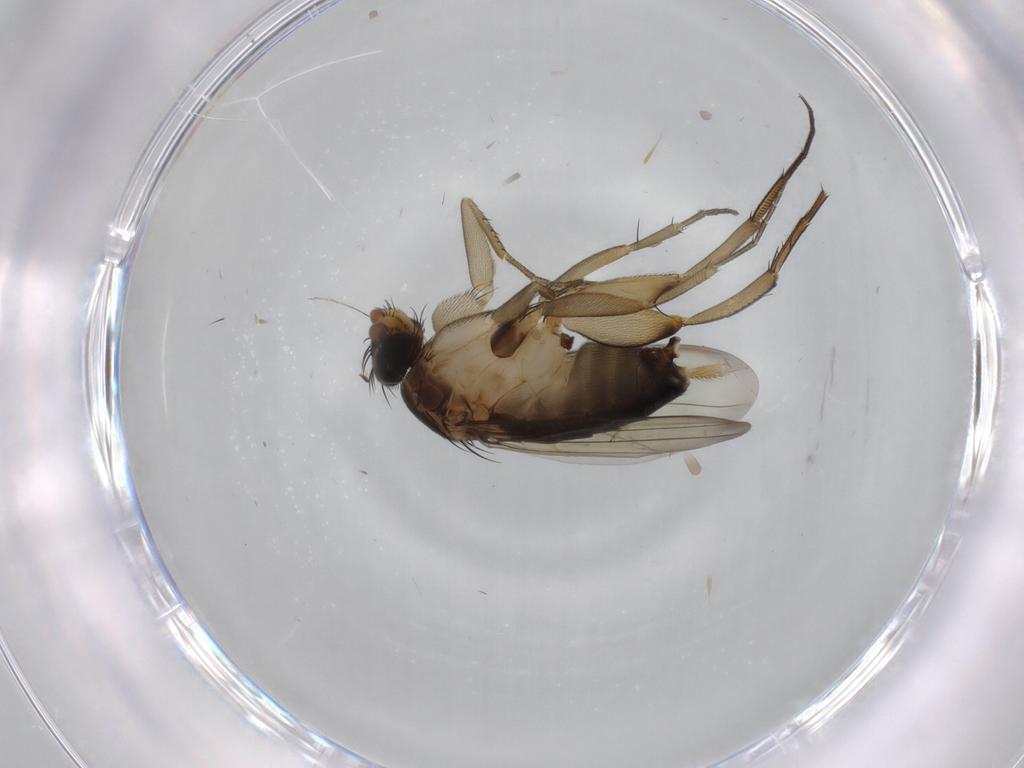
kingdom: Animalia
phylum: Arthropoda
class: Insecta
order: Diptera
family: Phoridae
